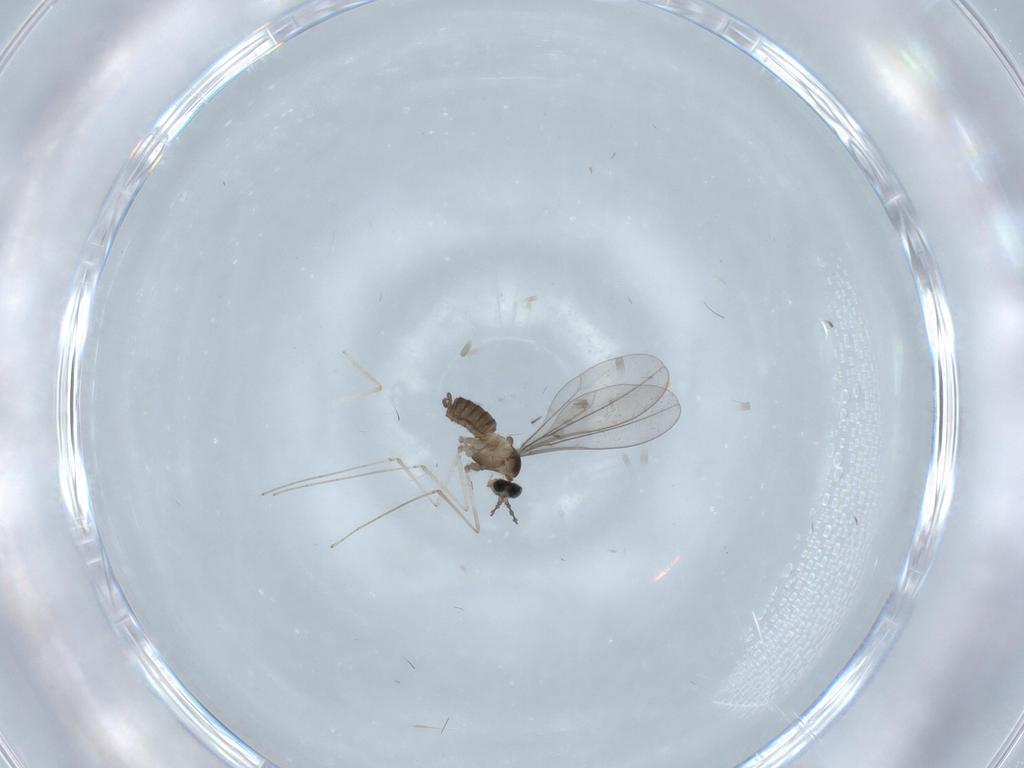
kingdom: Animalia
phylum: Arthropoda
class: Insecta
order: Diptera
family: Chironomidae
